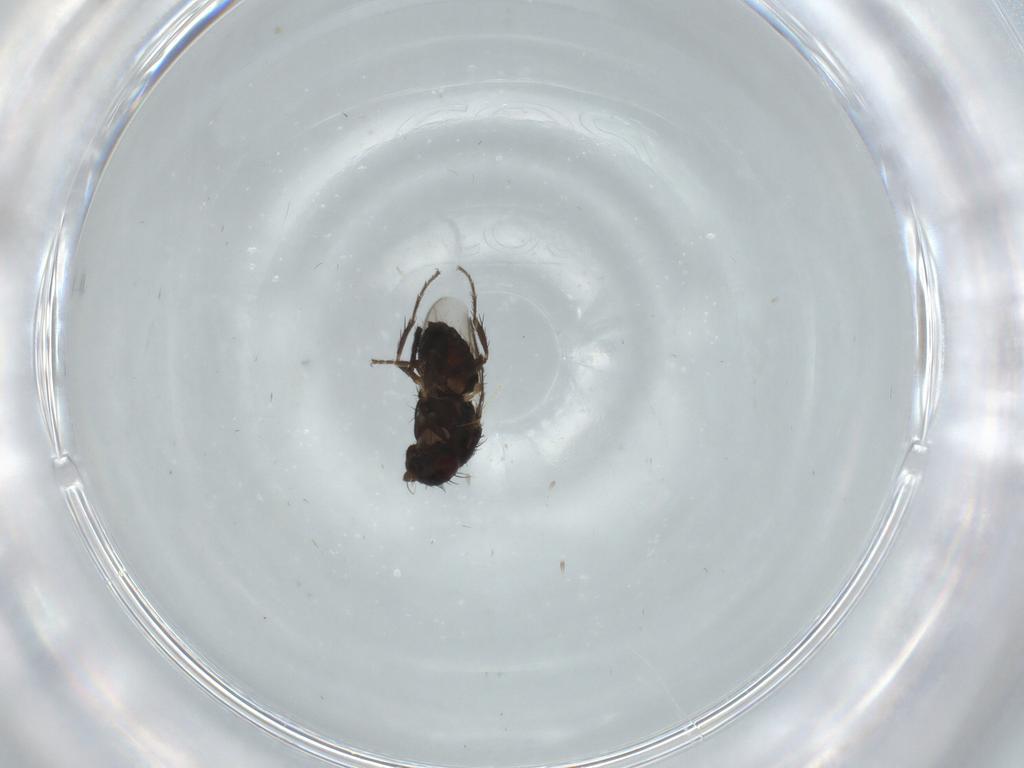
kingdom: Animalia
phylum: Arthropoda
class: Insecta
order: Diptera
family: Sphaeroceridae
